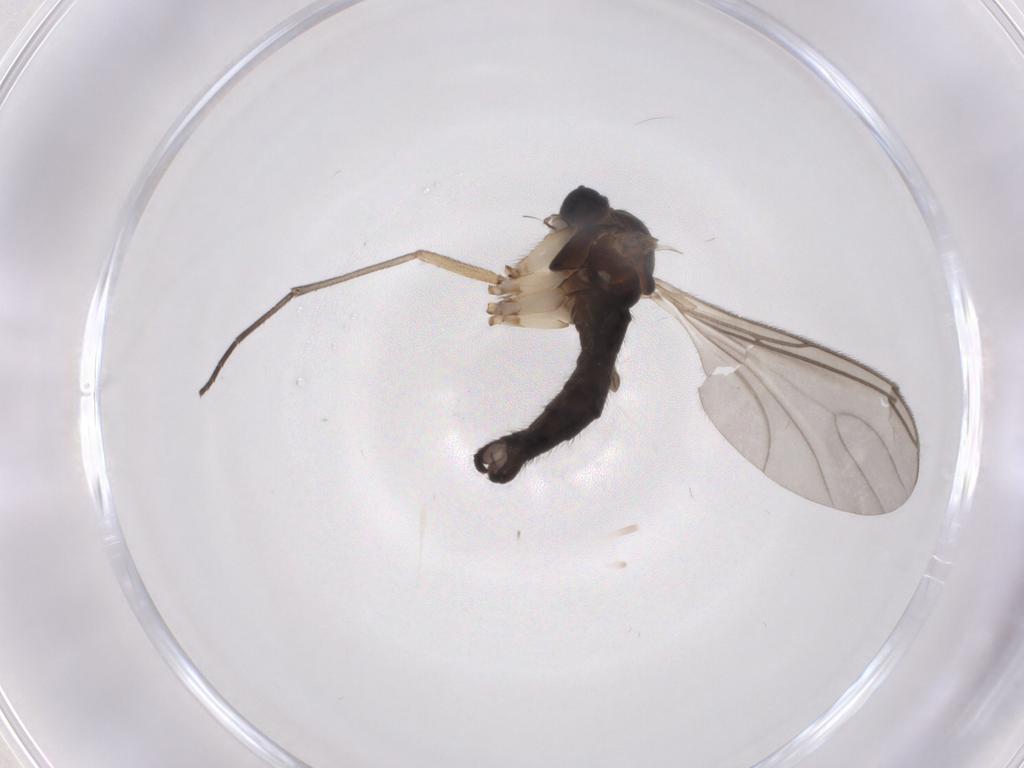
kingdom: Animalia
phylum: Arthropoda
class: Insecta
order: Diptera
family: Sciaridae
